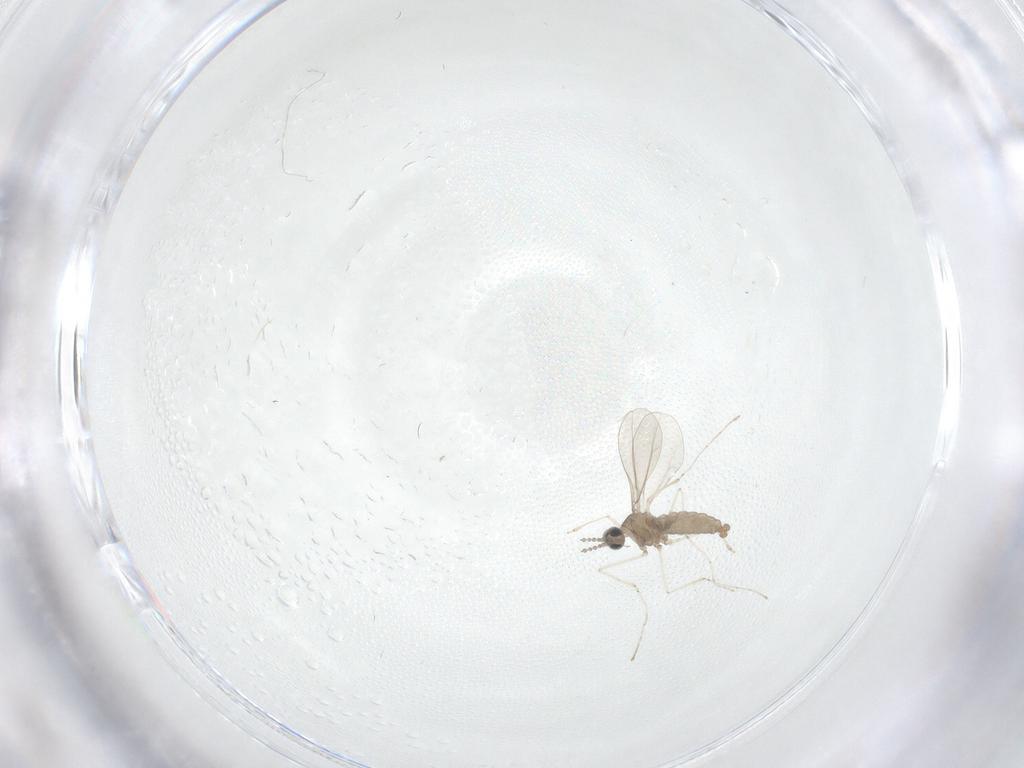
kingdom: Animalia
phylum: Arthropoda
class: Insecta
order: Diptera
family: Cecidomyiidae
